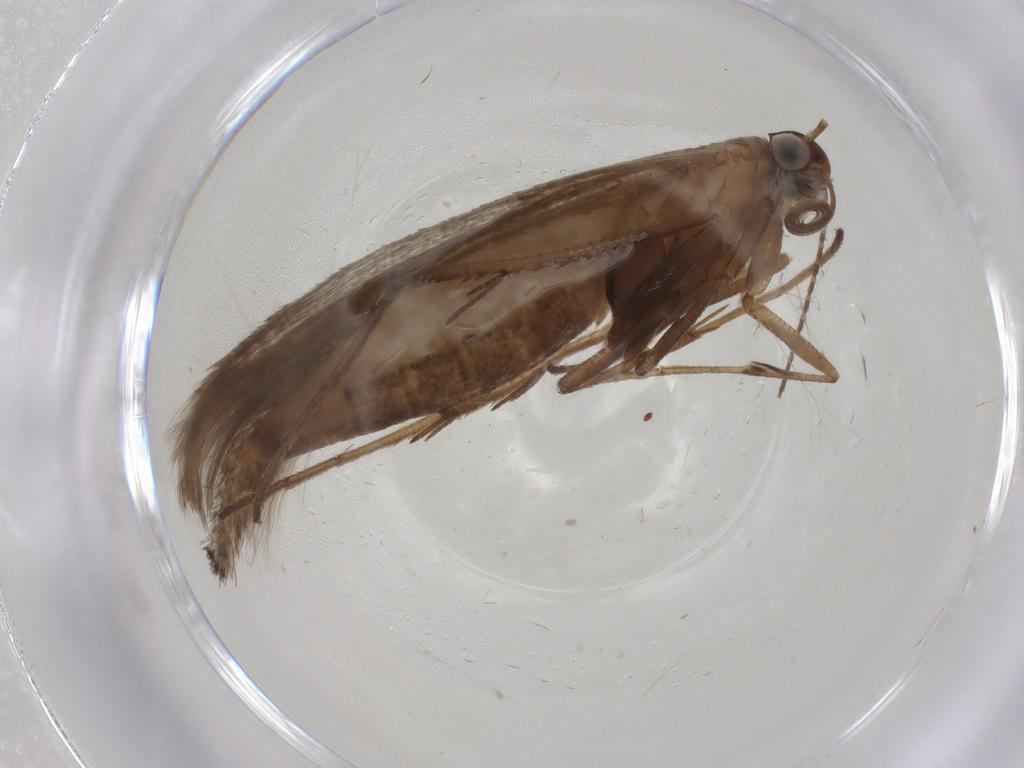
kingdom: Animalia
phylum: Arthropoda
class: Insecta
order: Lepidoptera
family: Gelechiidae
